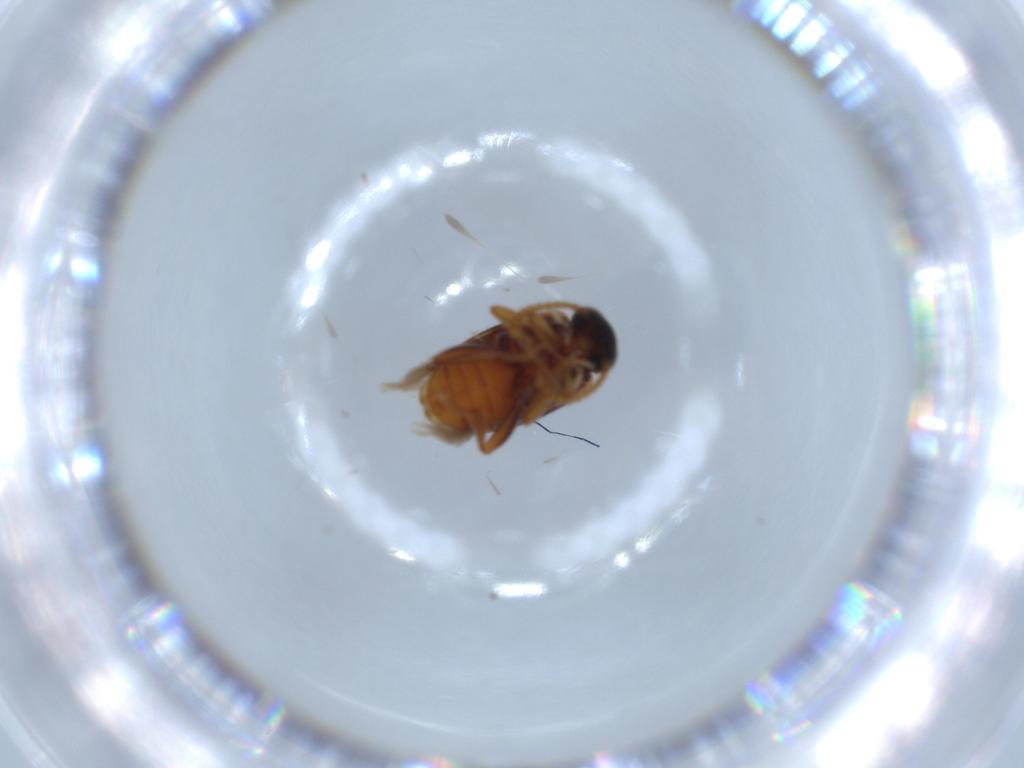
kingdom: Animalia
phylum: Arthropoda
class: Insecta
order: Coleoptera
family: Aderidae
